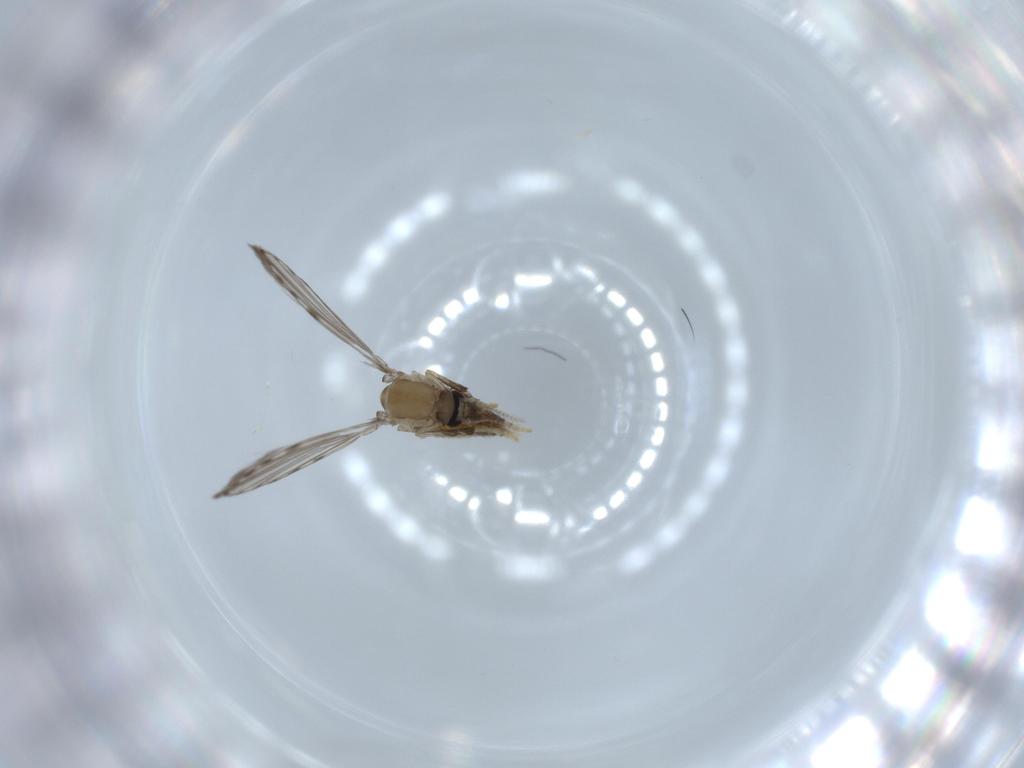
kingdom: Animalia
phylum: Arthropoda
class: Insecta
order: Diptera
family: Psychodidae
